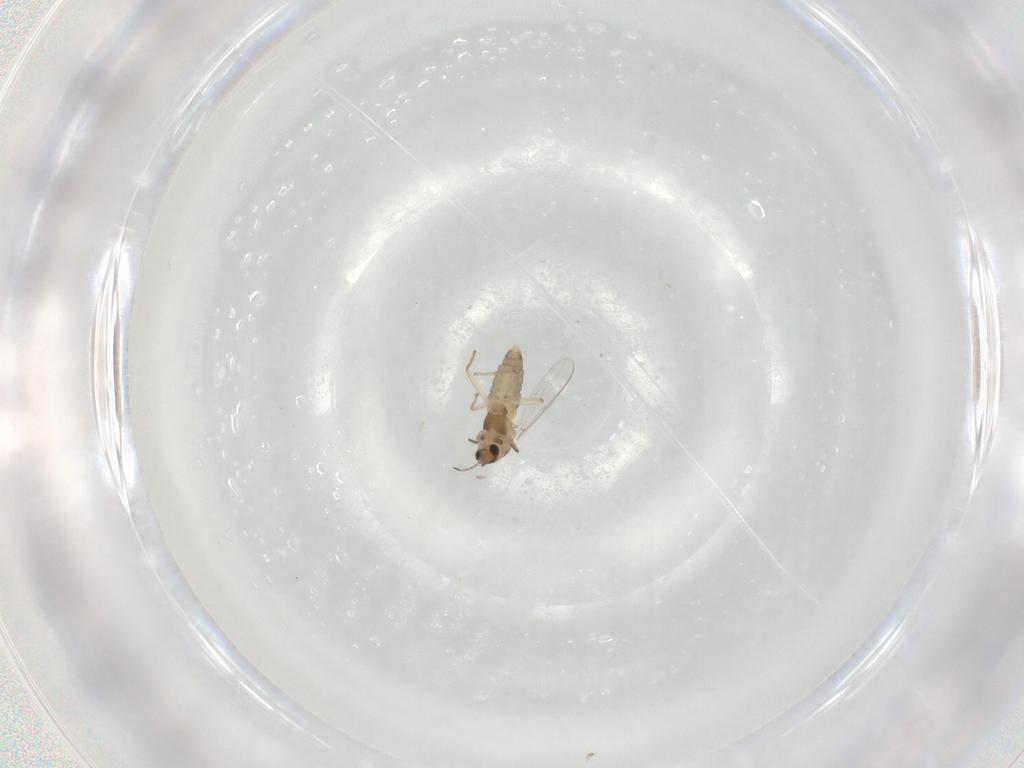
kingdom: Animalia
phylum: Arthropoda
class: Insecta
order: Diptera
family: Chironomidae
